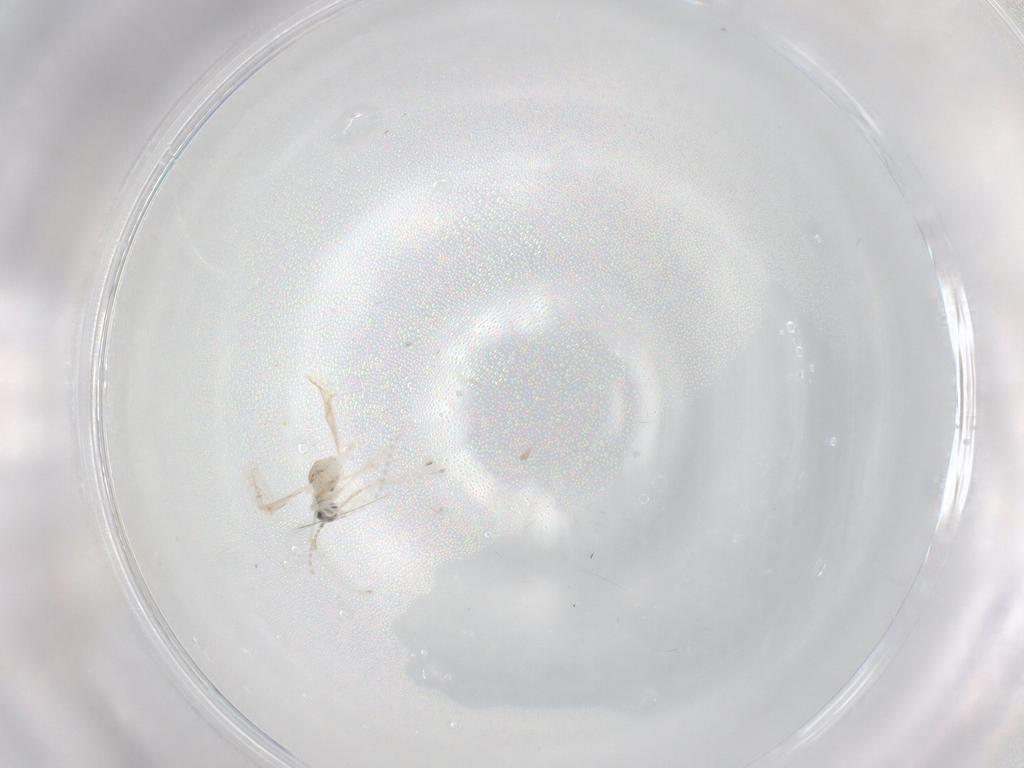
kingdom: Animalia
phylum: Arthropoda
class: Insecta
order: Diptera
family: Cecidomyiidae
